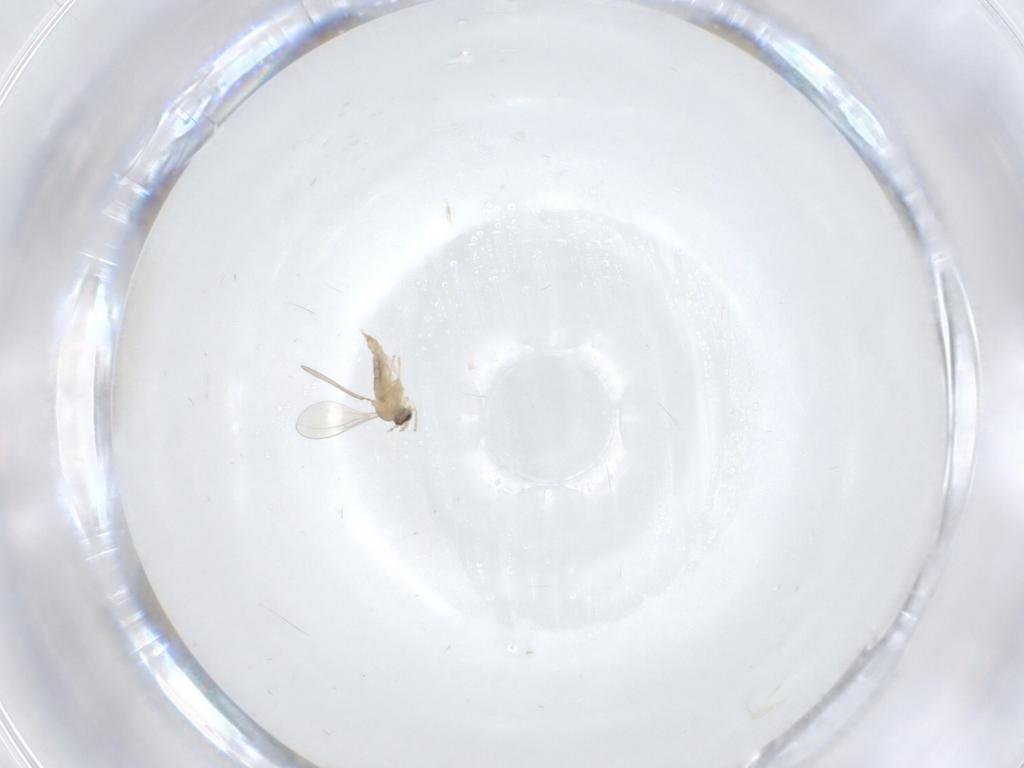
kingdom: Animalia
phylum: Arthropoda
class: Insecta
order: Diptera
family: Cecidomyiidae
